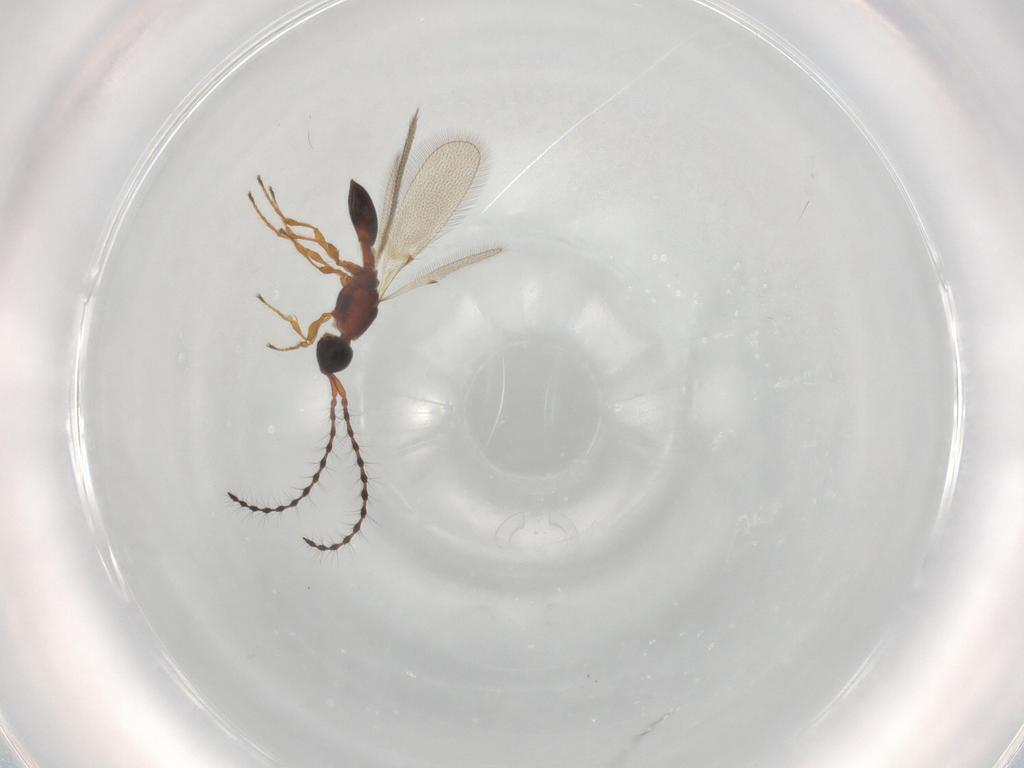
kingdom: Animalia
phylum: Arthropoda
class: Insecta
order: Hymenoptera
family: Diapriidae
